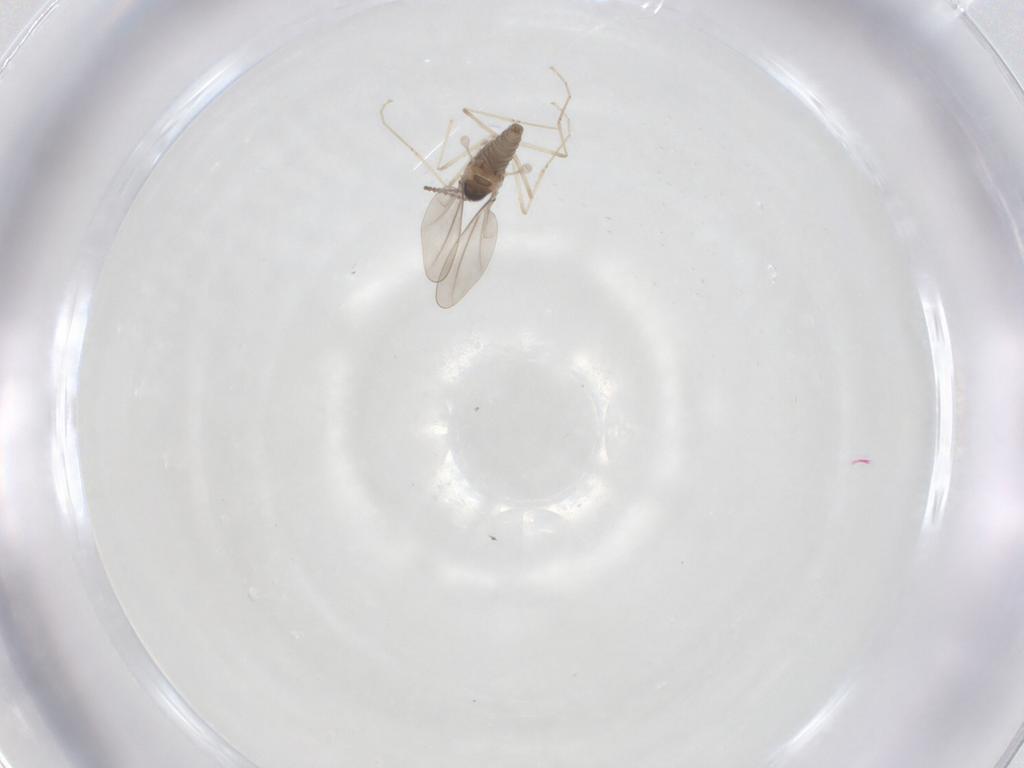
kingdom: Animalia
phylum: Arthropoda
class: Insecta
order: Diptera
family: Cecidomyiidae
